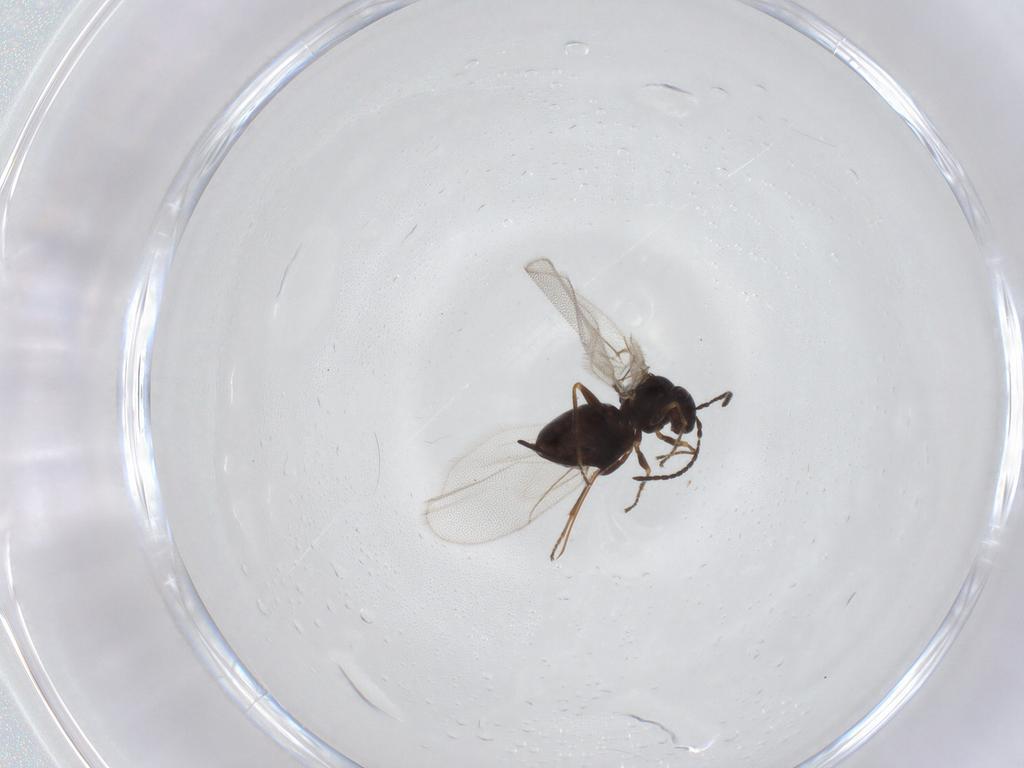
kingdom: Animalia
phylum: Arthropoda
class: Insecta
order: Hymenoptera
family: Cynipidae
